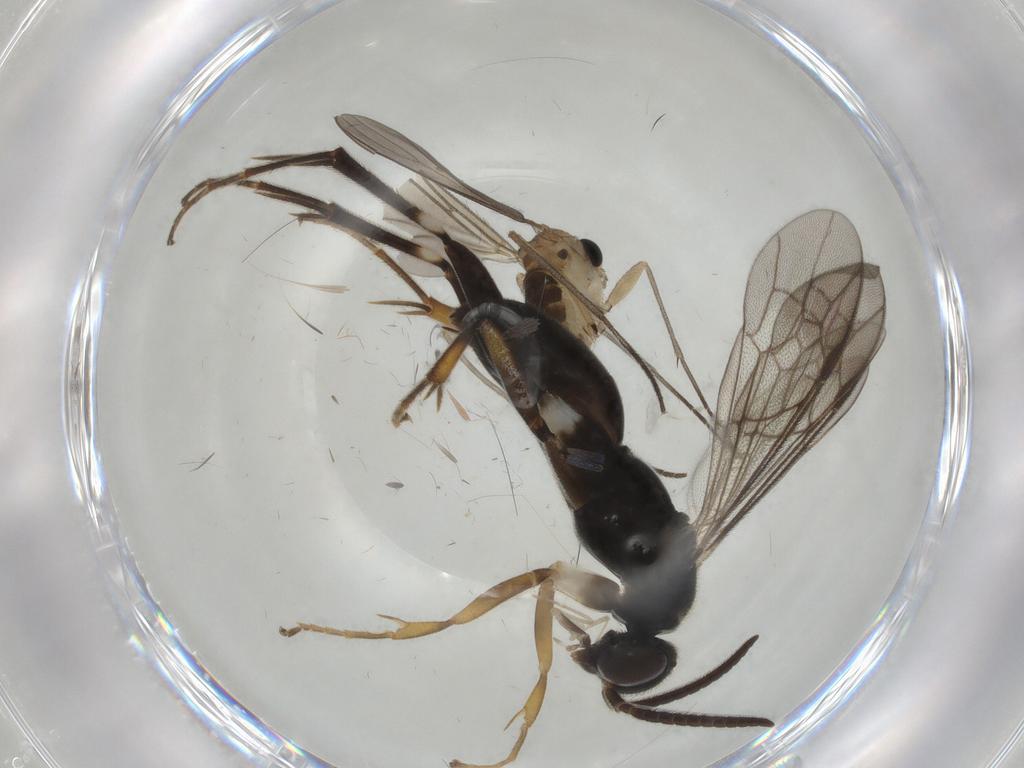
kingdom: Animalia
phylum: Arthropoda
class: Insecta
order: Diptera
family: Sciaridae
